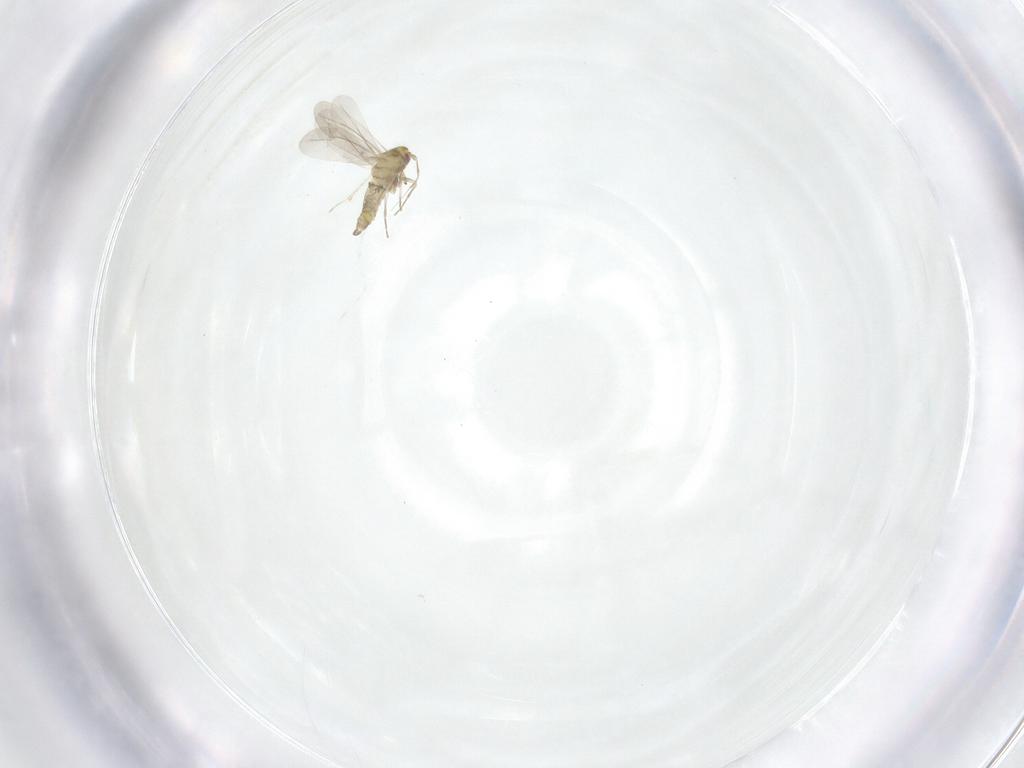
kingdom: Animalia
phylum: Arthropoda
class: Insecta
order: Hemiptera
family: Aleyrodidae
